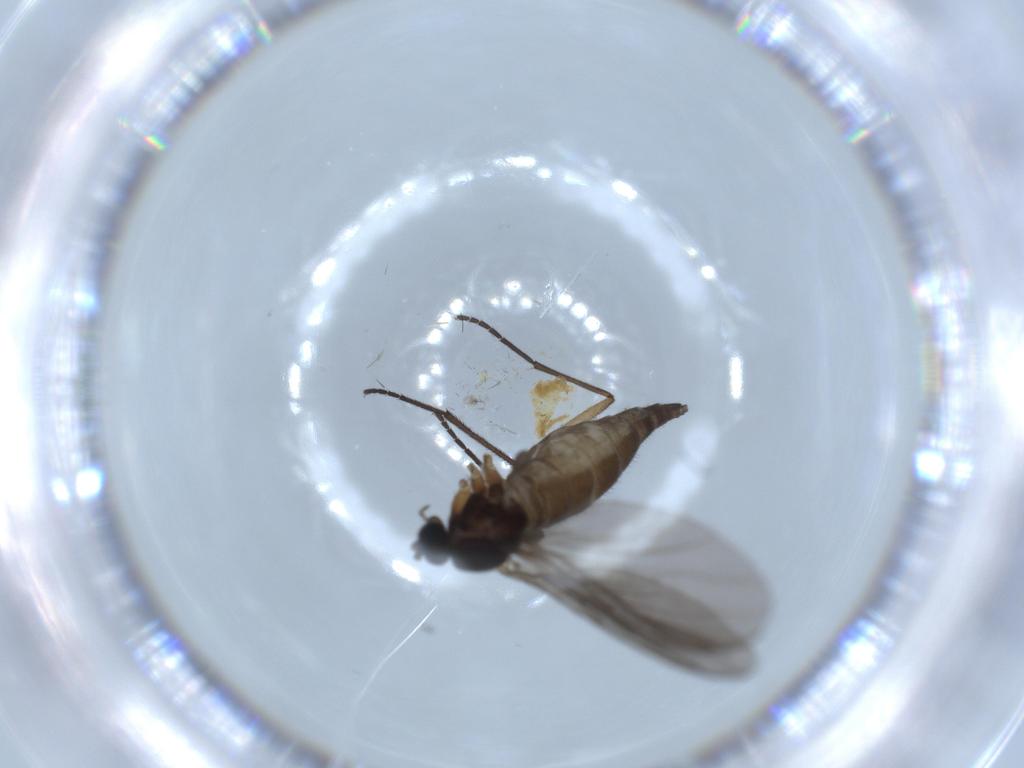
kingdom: Animalia
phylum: Arthropoda
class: Insecta
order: Diptera
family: Sciaridae
